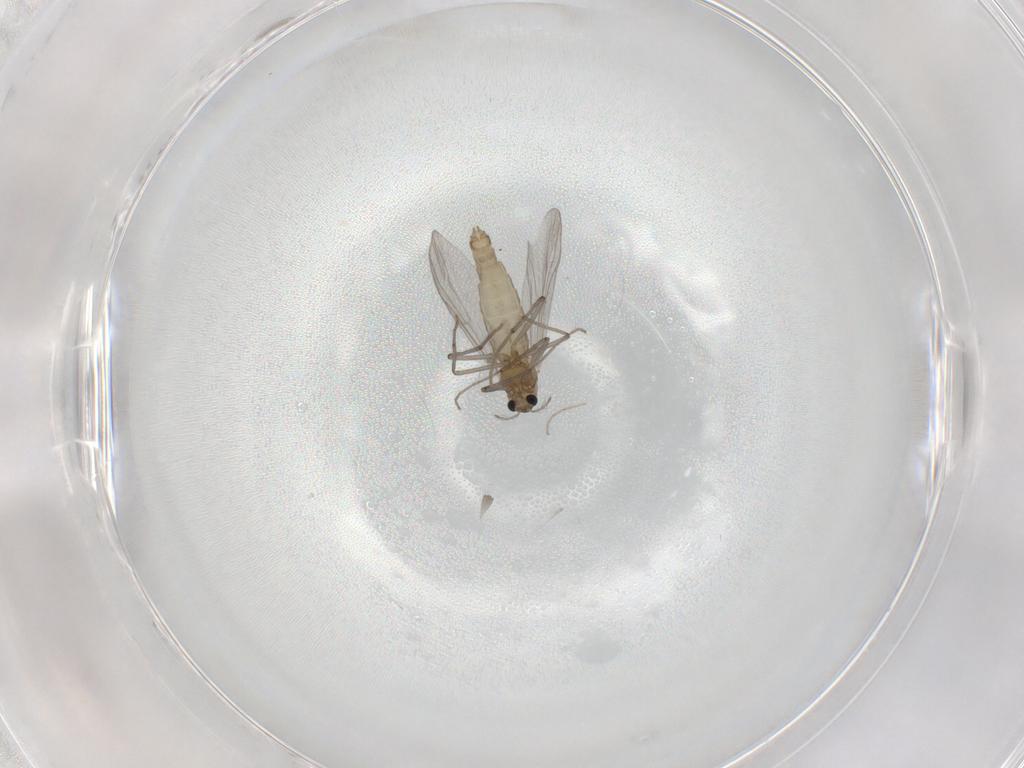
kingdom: Animalia
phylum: Arthropoda
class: Insecta
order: Diptera
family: Chironomidae
